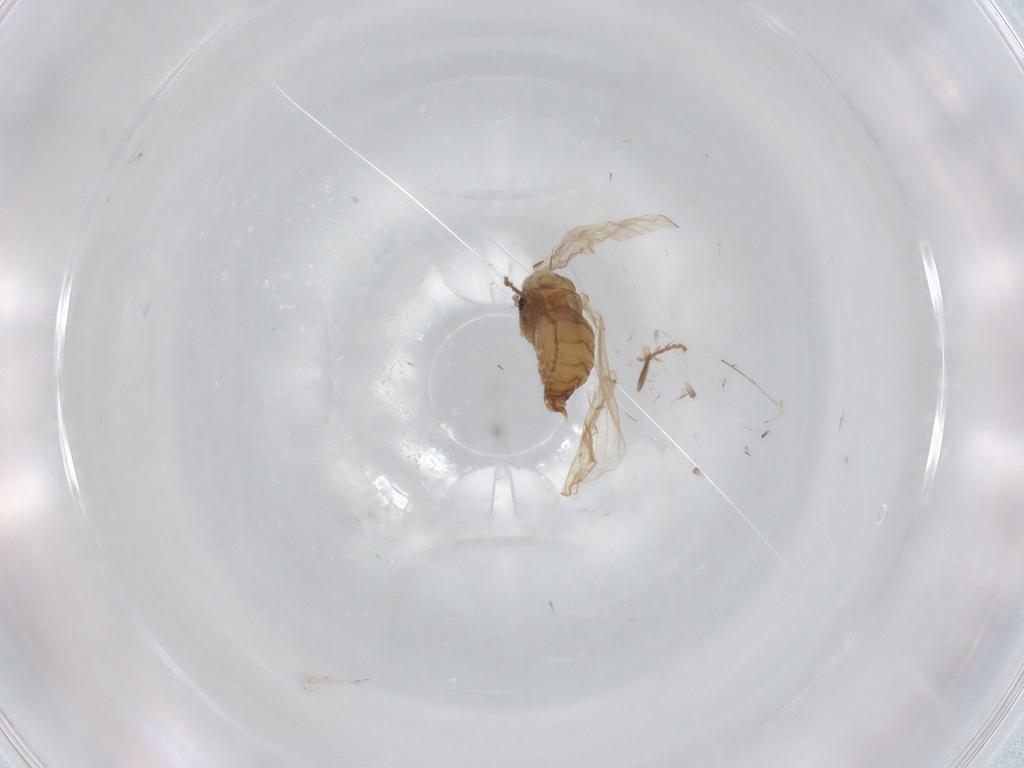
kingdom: Animalia
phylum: Arthropoda
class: Insecta
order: Diptera
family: Psychodidae
